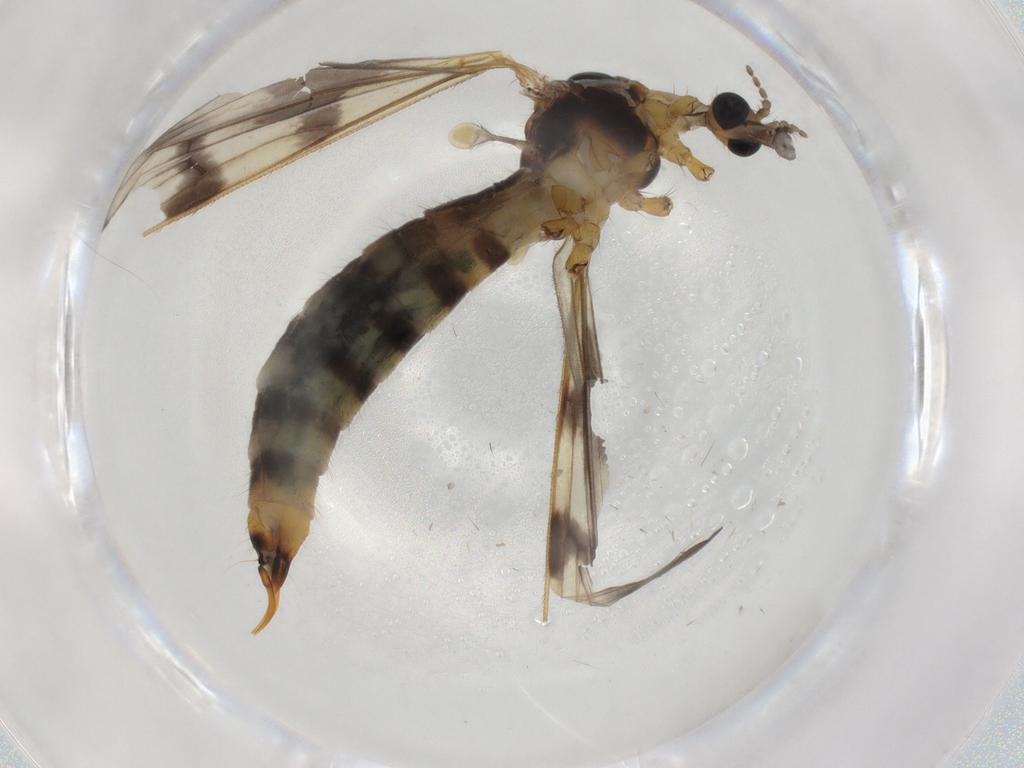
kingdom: Animalia
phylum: Arthropoda
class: Insecta
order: Diptera
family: Limoniidae
